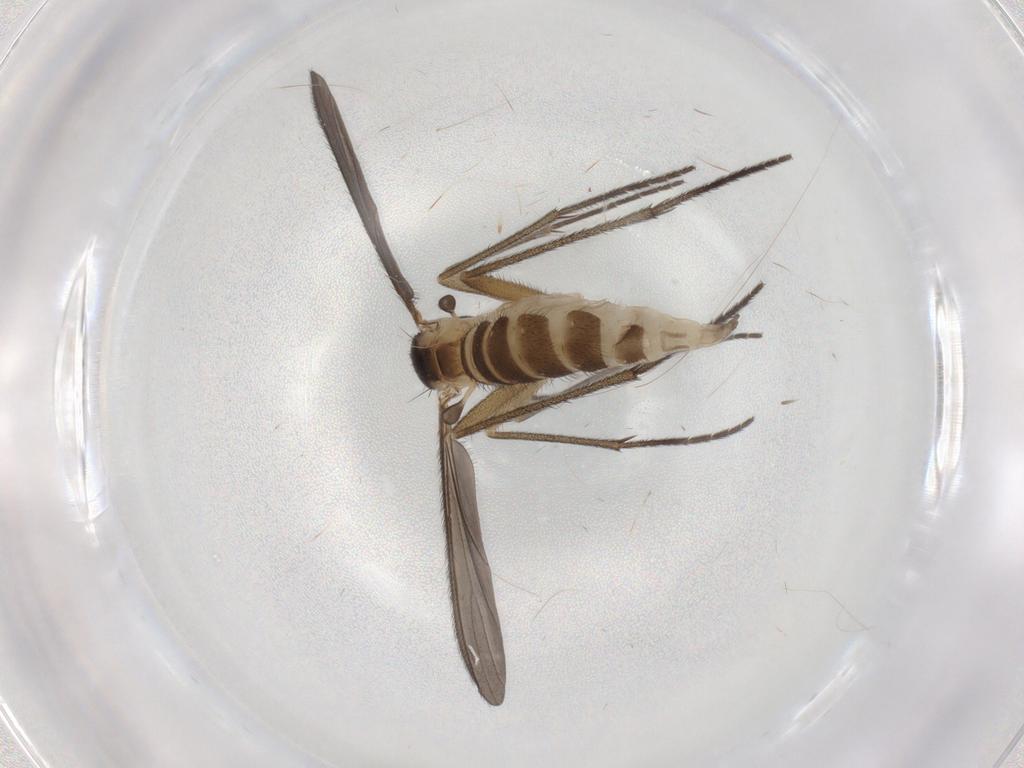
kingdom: Animalia
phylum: Arthropoda
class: Insecta
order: Diptera
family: Sciaridae
